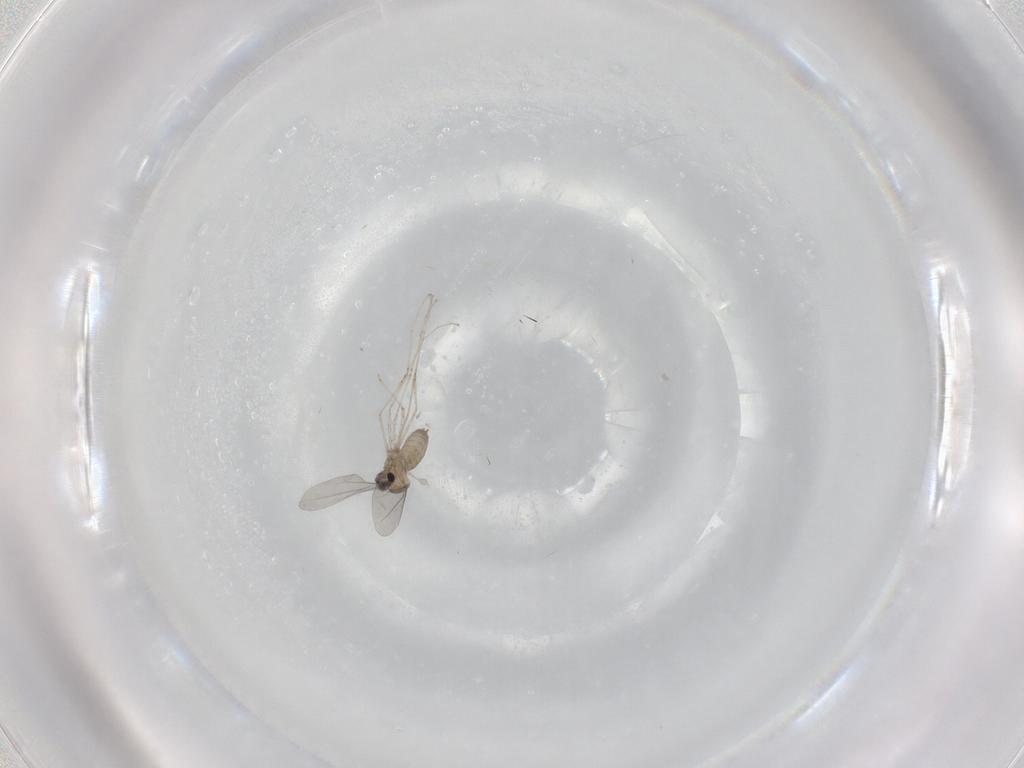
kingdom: Animalia
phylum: Arthropoda
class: Insecta
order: Diptera
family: Cecidomyiidae
